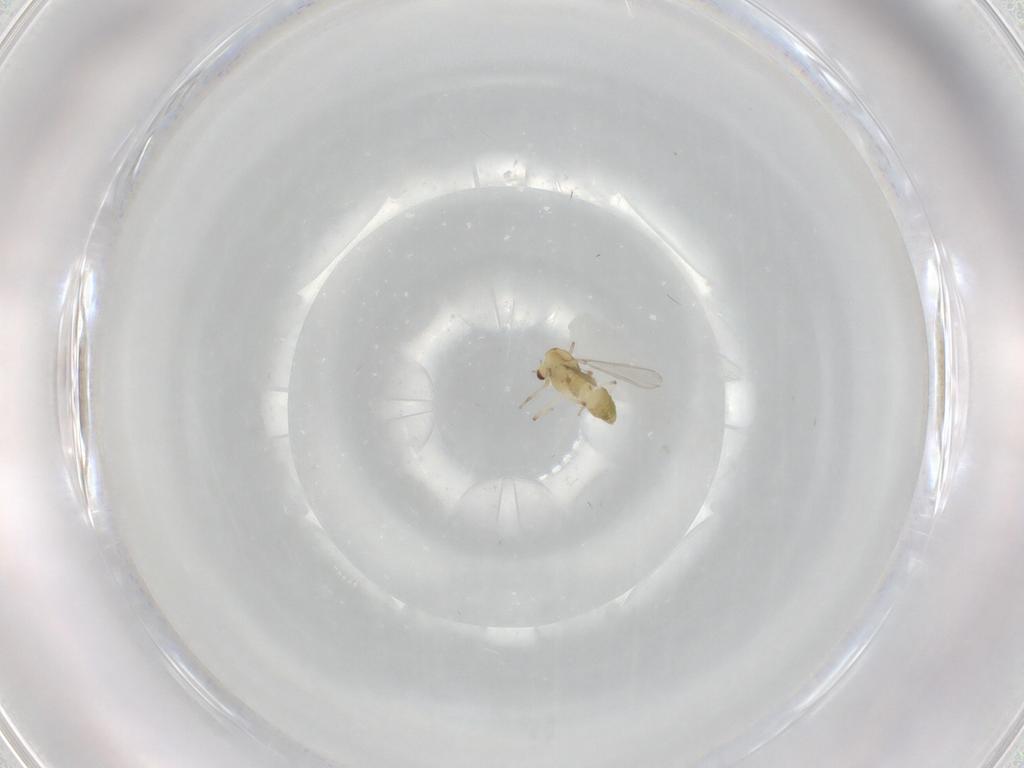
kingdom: Animalia
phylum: Arthropoda
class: Insecta
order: Diptera
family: Chironomidae
